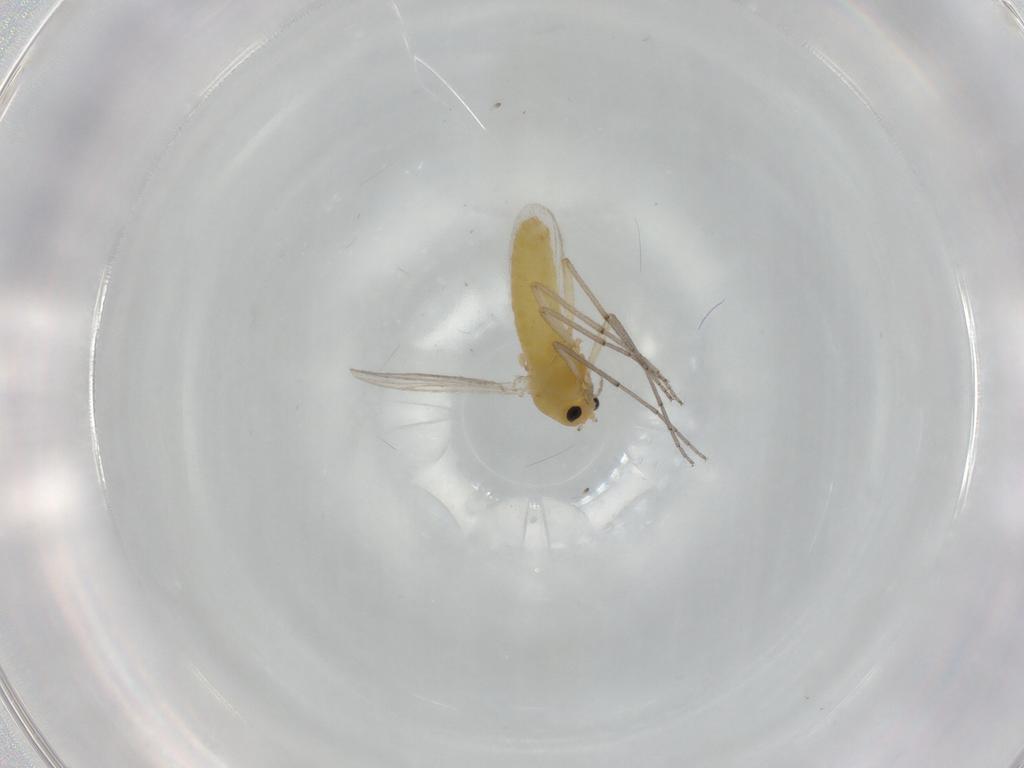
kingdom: Animalia
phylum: Arthropoda
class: Insecta
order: Diptera
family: Chironomidae
